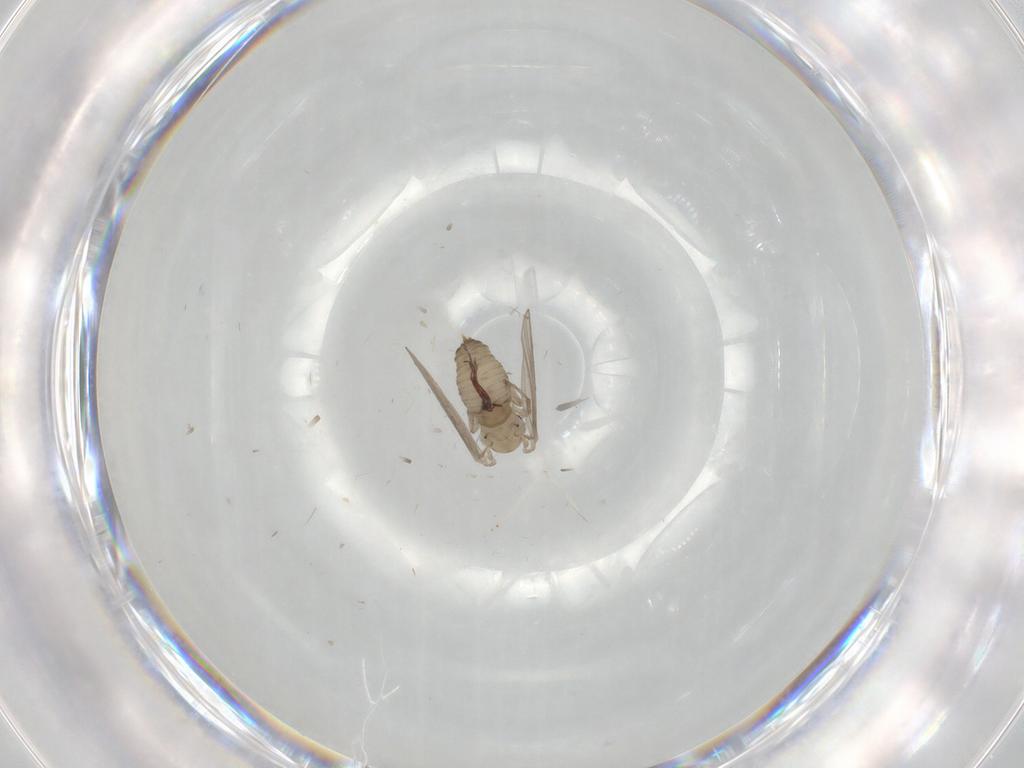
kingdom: Animalia
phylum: Arthropoda
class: Insecta
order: Diptera
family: Psychodidae
